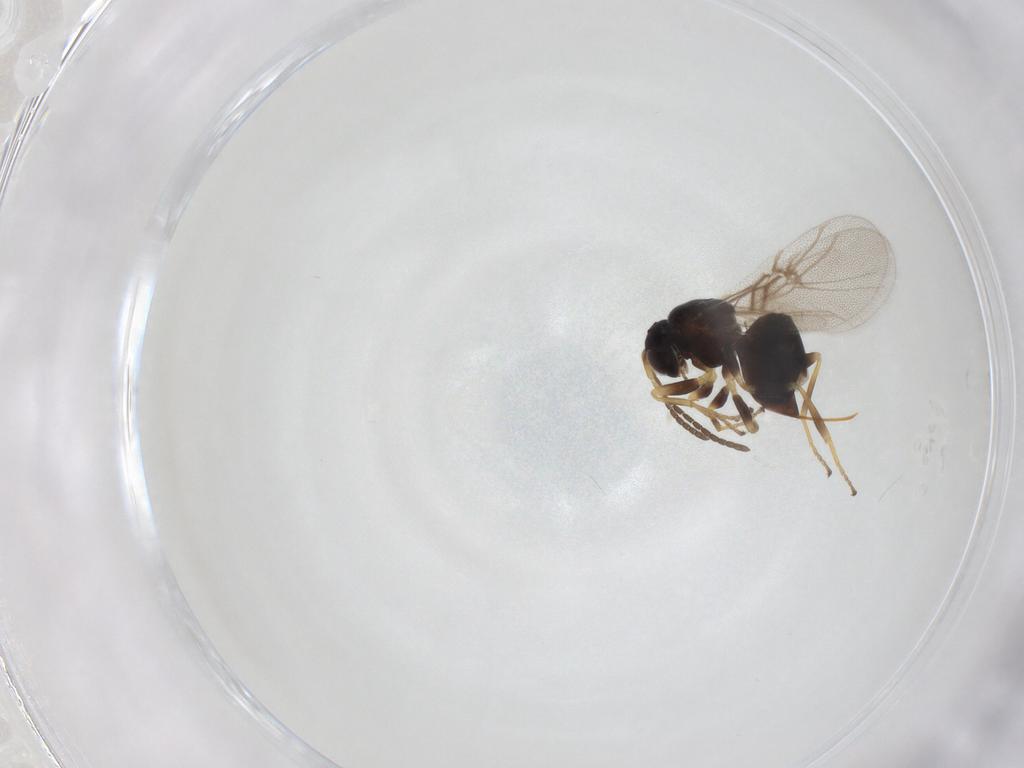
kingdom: Animalia
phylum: Arthropoda
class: Insecta
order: Hymenoptera
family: Cynipidae
